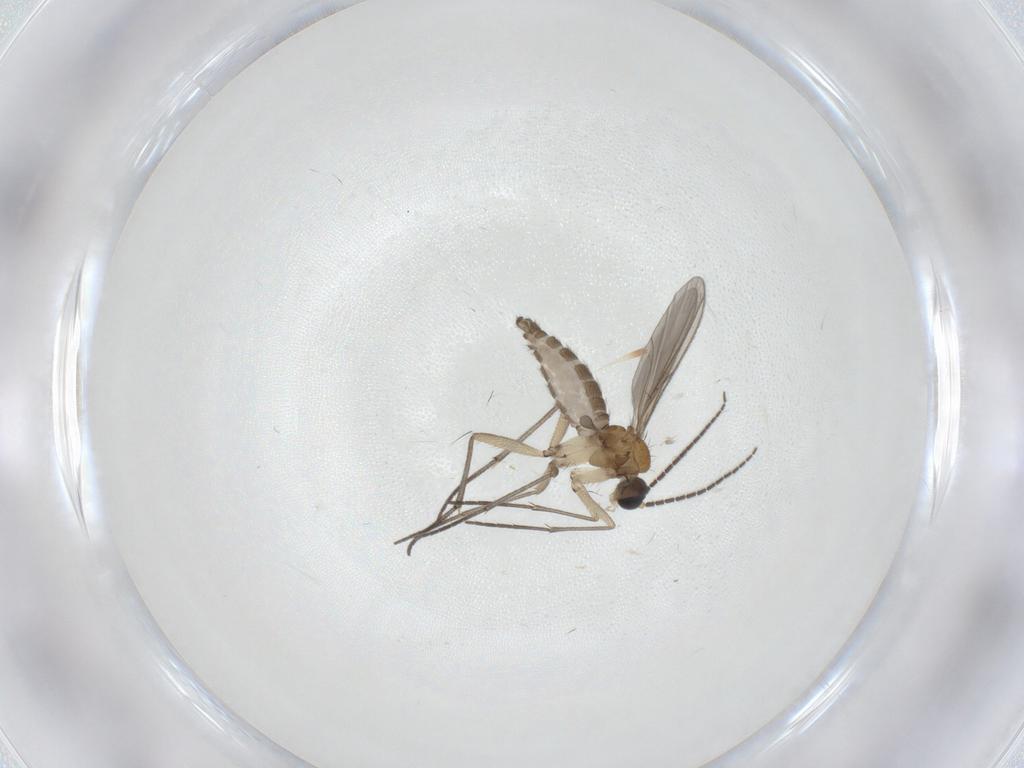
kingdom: Animalia
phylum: Arthropoda
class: Insecta
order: Diptera
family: Sciaridae
